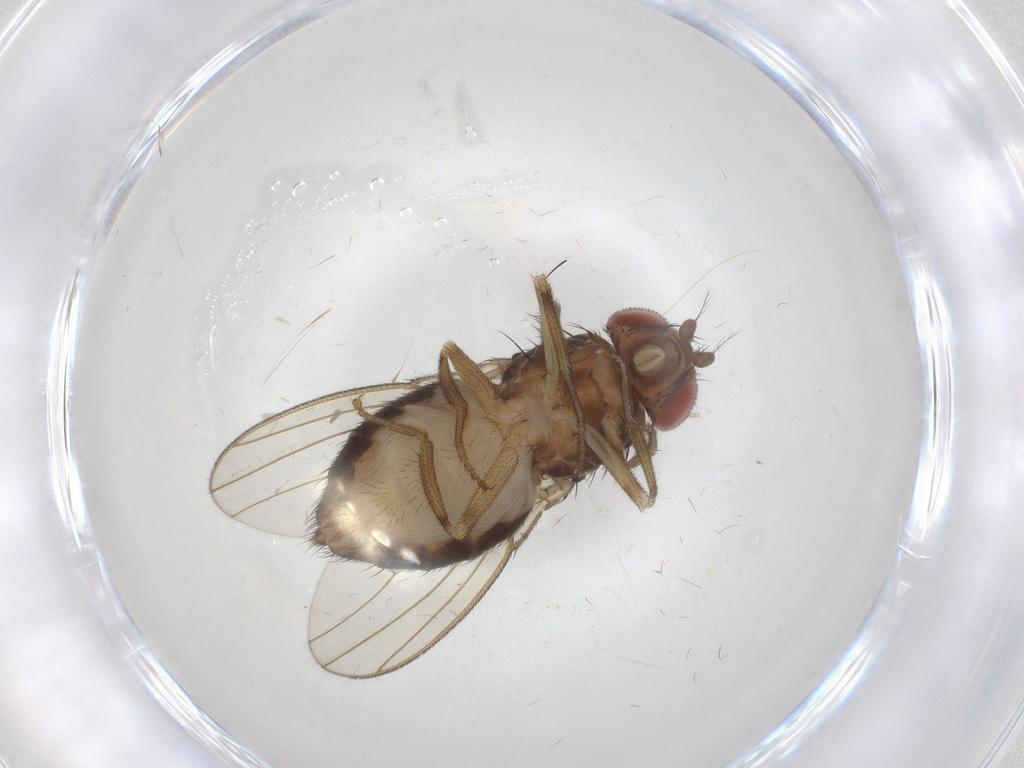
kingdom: Animalia
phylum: Arthropoda
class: Insecta
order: Diptera
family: Drosophilidae
